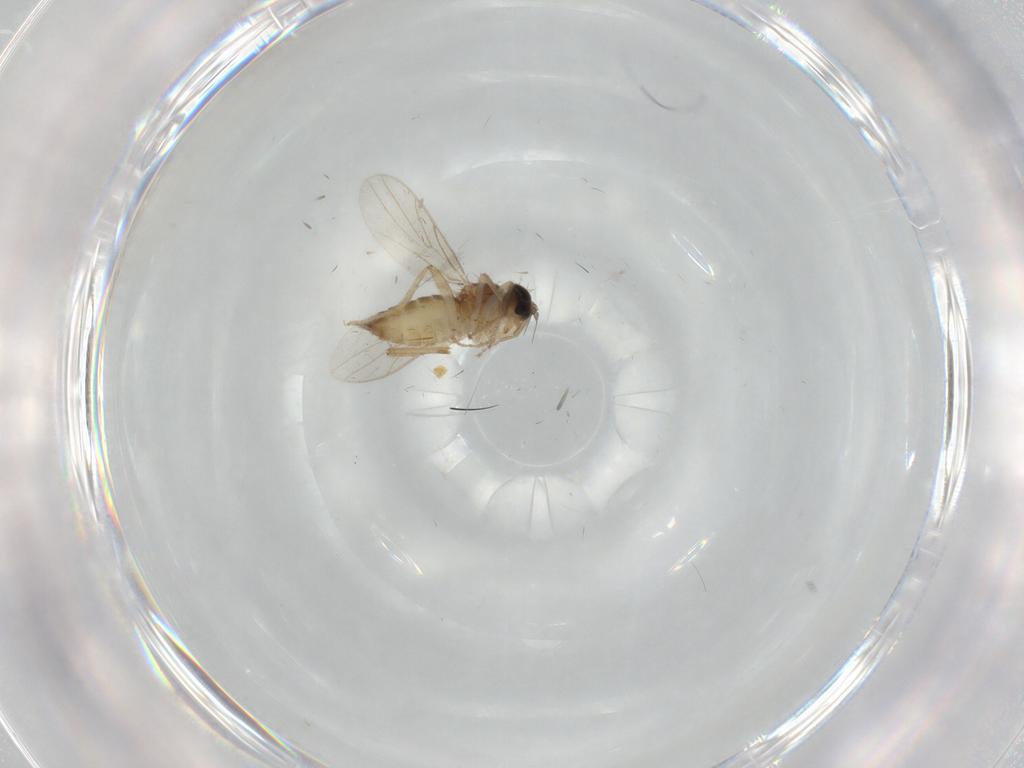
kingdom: Animalia
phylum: Arthropoda
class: Insecta
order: Diptera
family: Hybotidae
